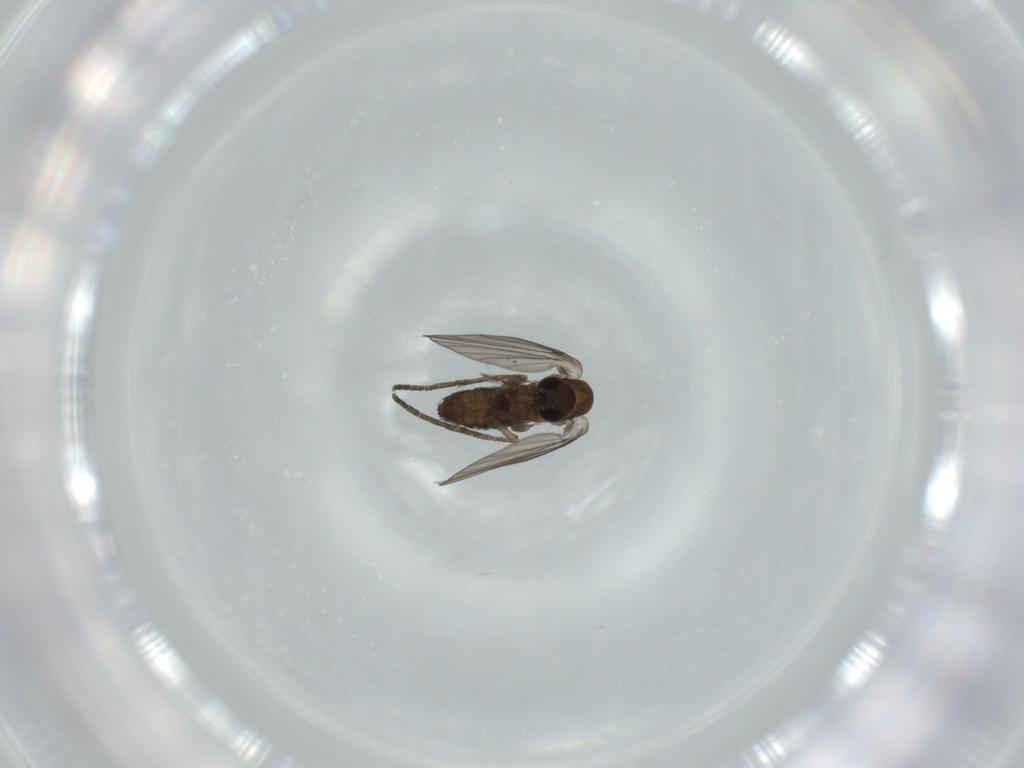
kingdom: Animalia
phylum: Arthropoda
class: Insecta
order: Diptera
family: Psychodidae
